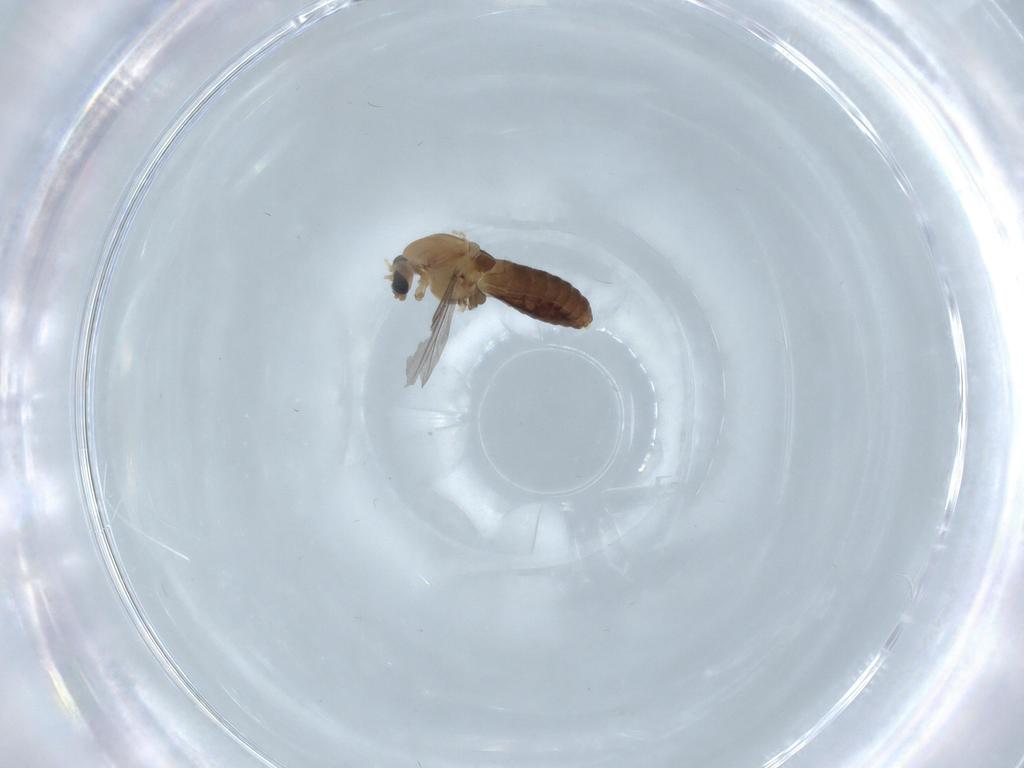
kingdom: Animalia
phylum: Arthropoda
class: Insecta
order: Diptera
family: Chironomidae
